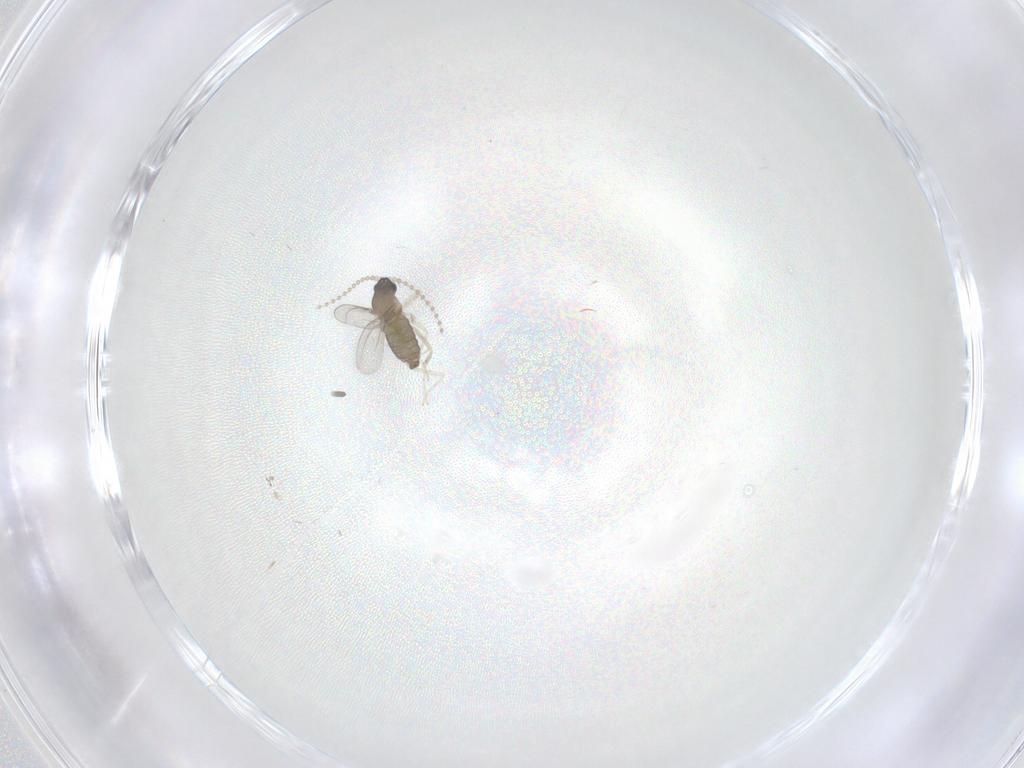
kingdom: Animalia
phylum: Arthropoda
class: Insecta
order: Diptera
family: Cecidomyiidae
